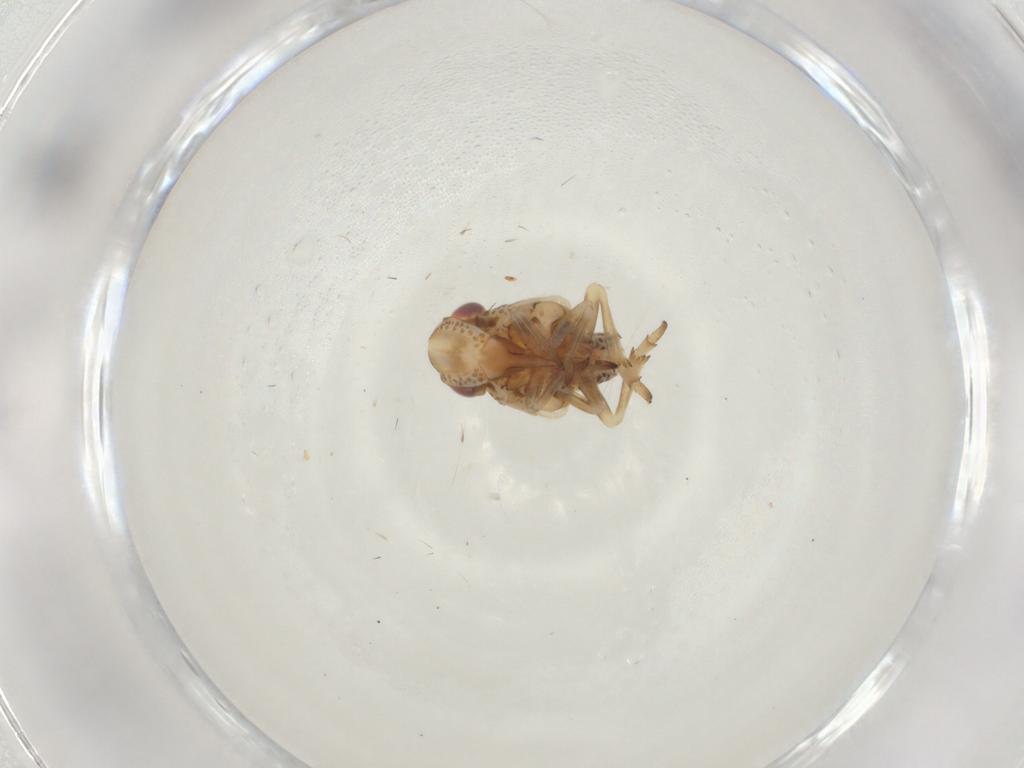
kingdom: Animalia
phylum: Arthropoda
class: Insecta
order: Hemiptera
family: Fulgoroidea_incertae_sedis
